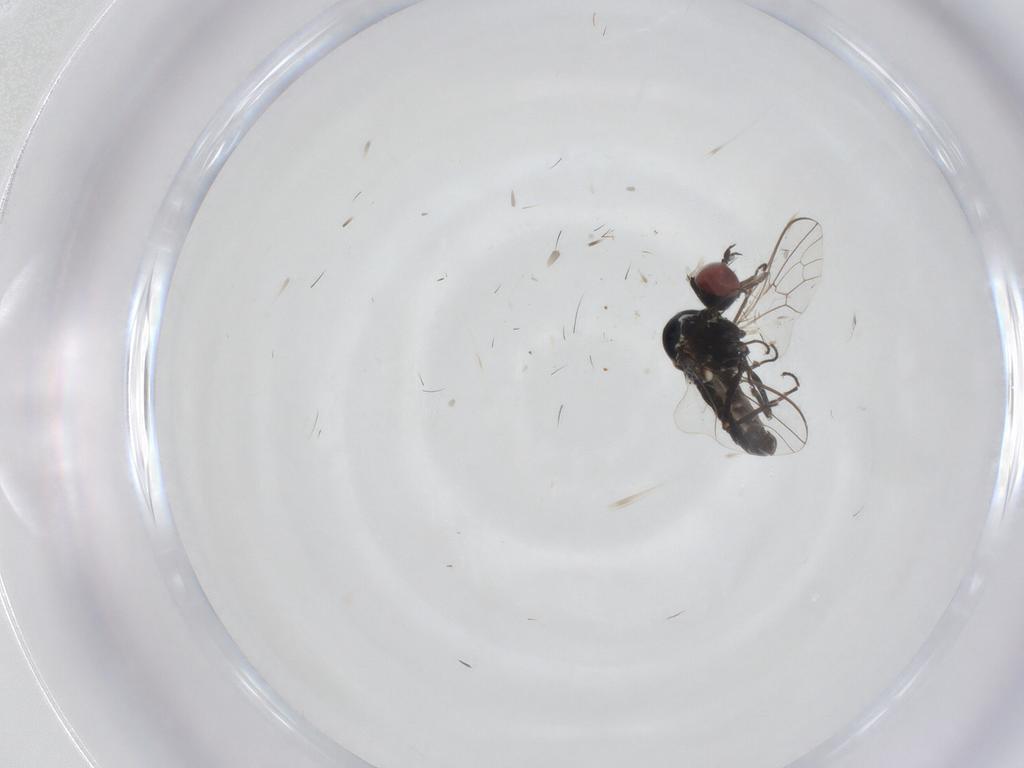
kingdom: Animalia
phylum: Arthropoda
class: Insecta
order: Diptera
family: Bombyliidae
